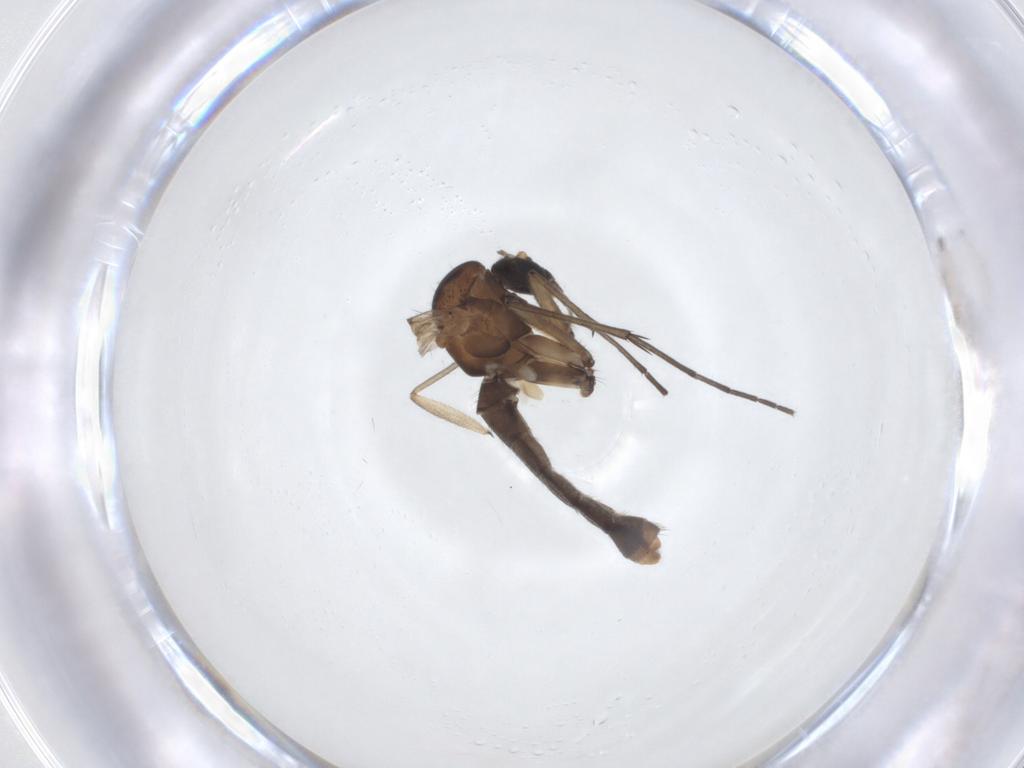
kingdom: Animalia
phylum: Arthropoda
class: Insecta
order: Diptera
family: Mycetophilidae
